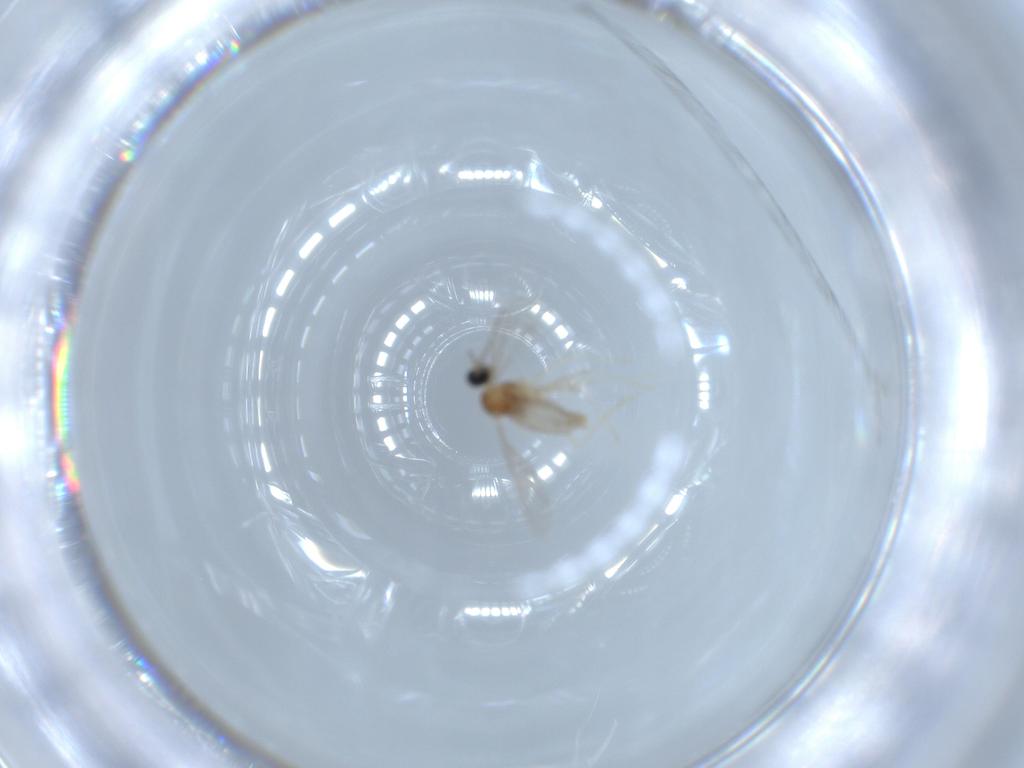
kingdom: Animalia
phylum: Arthropoda
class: Insecta
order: Diptera
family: Cecidomyiidae
